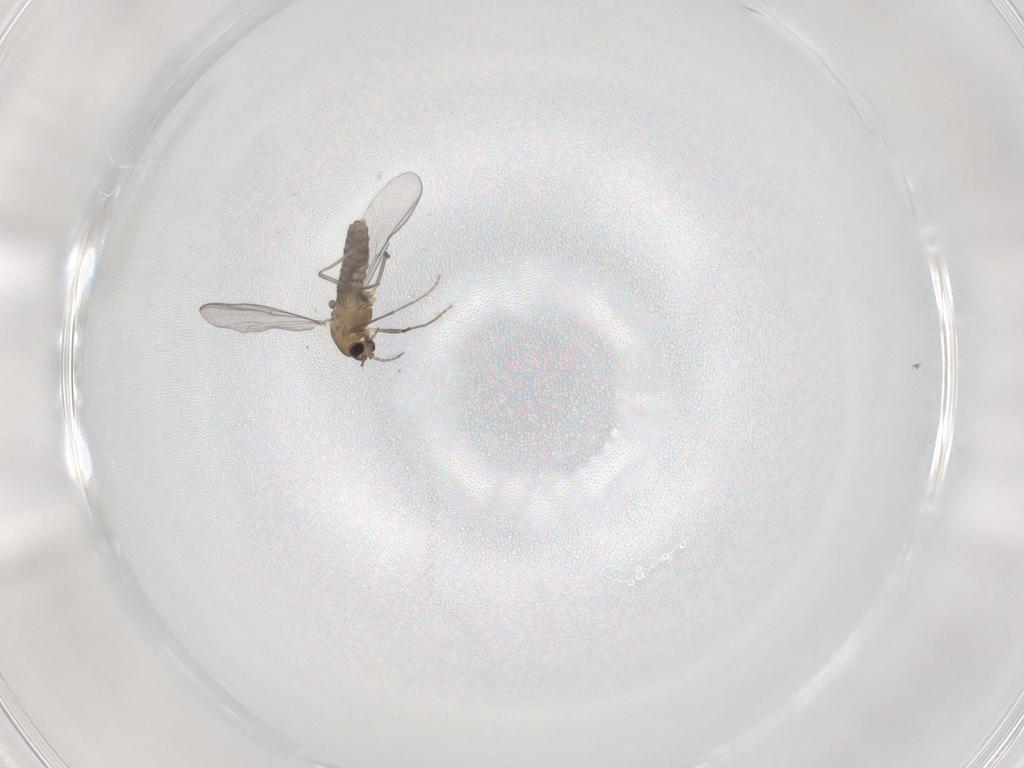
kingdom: Animalia
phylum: Arthropoda
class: Insecta
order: Diptera
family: Chironomidae
